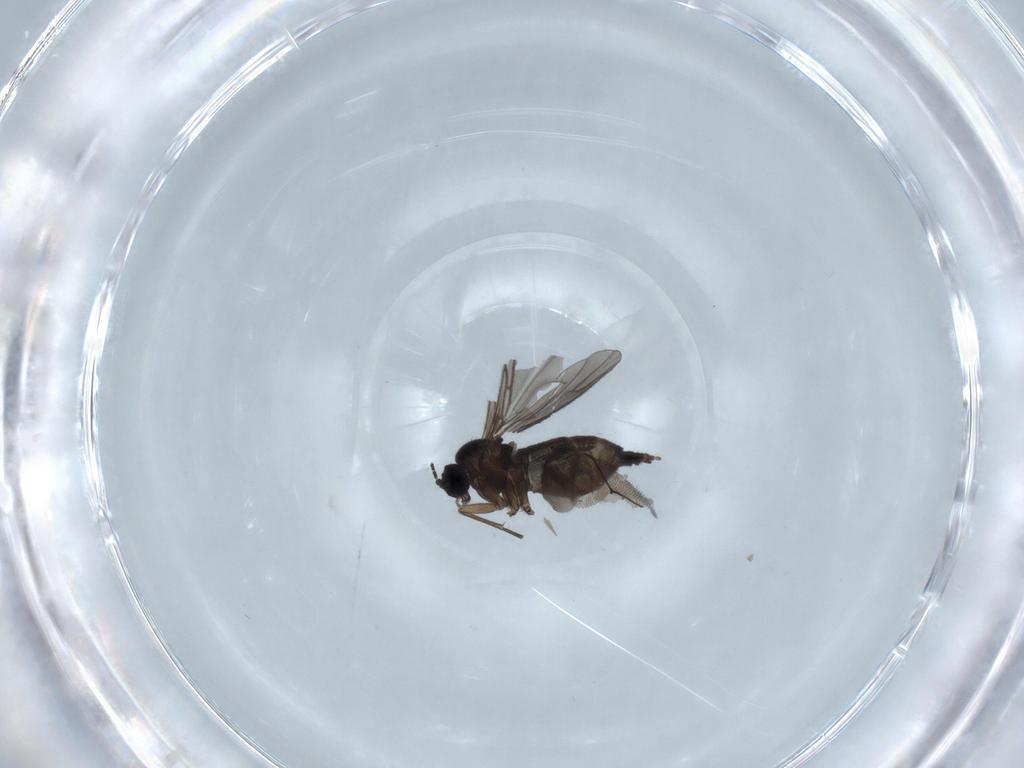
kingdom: Animalia
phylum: Arthropoda
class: Insecta
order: Diptera
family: Sciaridae
